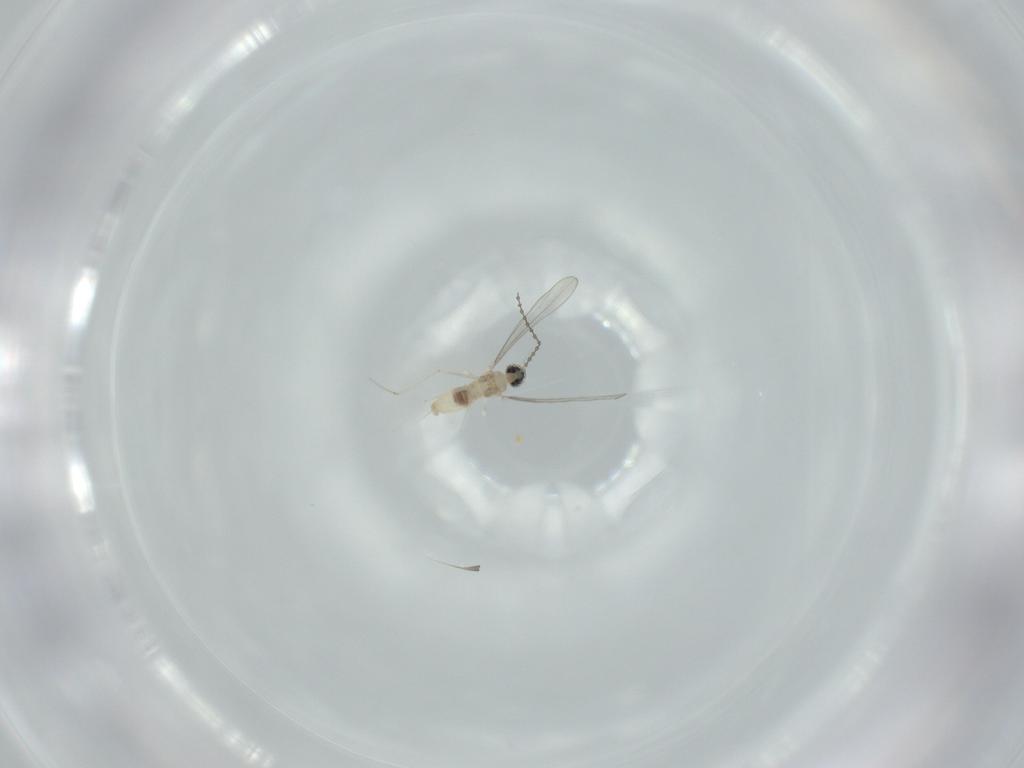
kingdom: Animalia
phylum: Arthropoda
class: Insecta
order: Diptera
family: Cecidomyiidae
